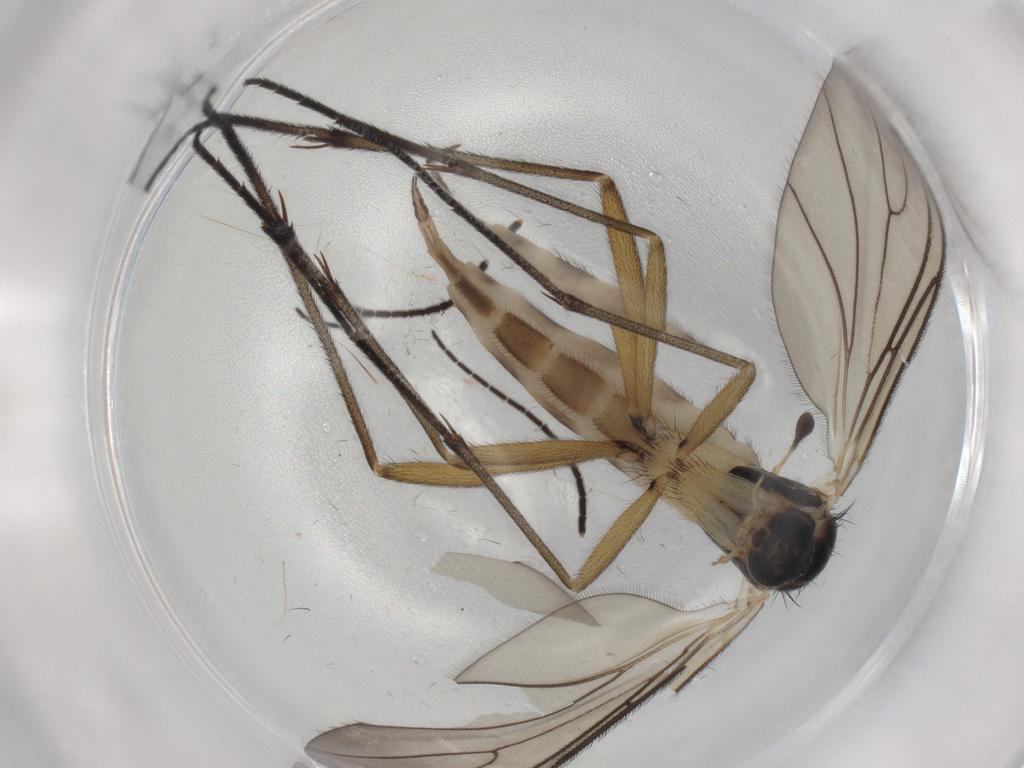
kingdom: Animalia
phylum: Arthropoda
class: Insecta
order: Diptera
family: Sciaridae
